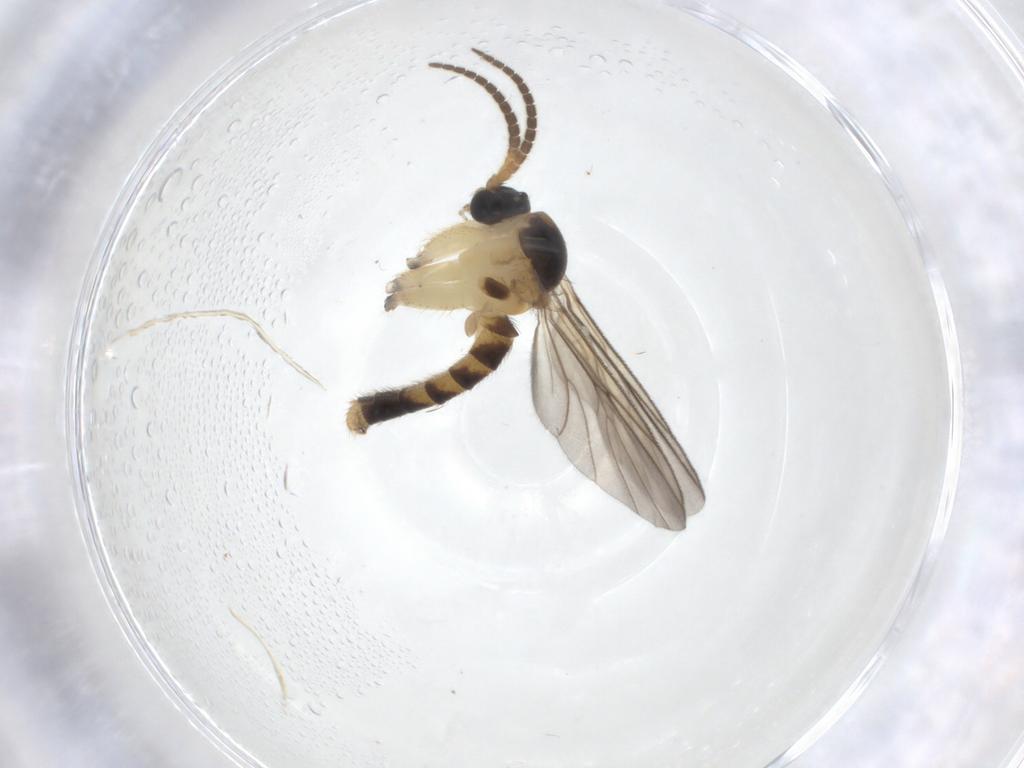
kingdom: Animalia
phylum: Arthropoda
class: Insecta
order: Diptera
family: Mycetophilidae
